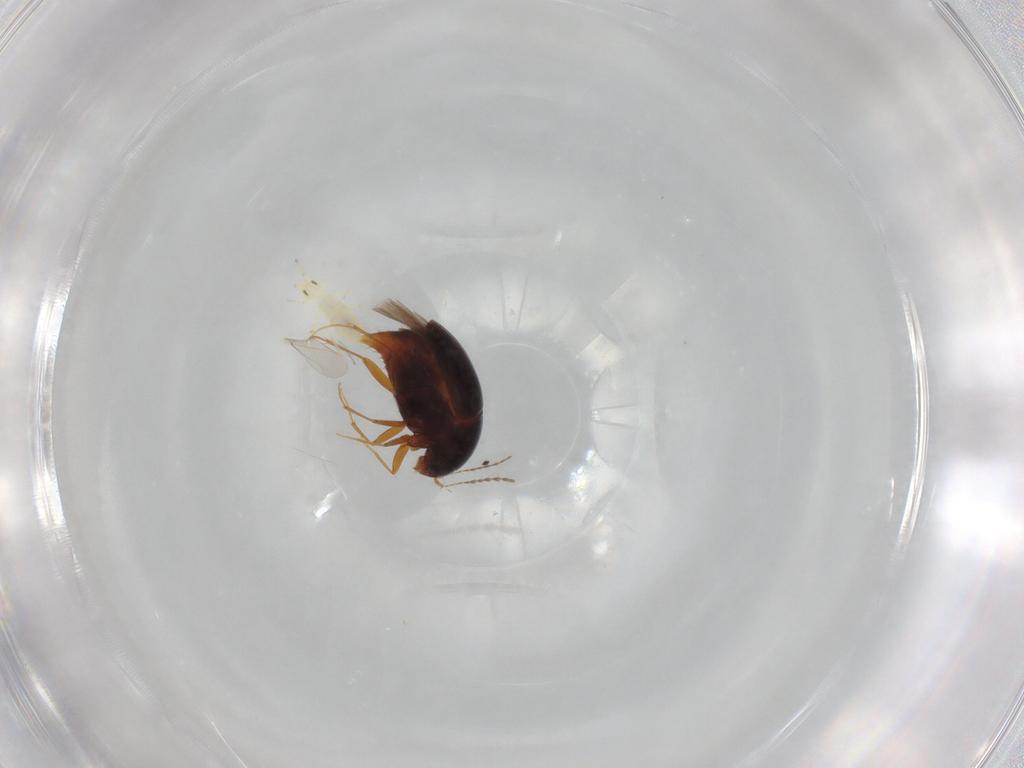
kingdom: Animalia
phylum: Arthropoda
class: Insecta
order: Coleoptera
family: Staphylinidae
